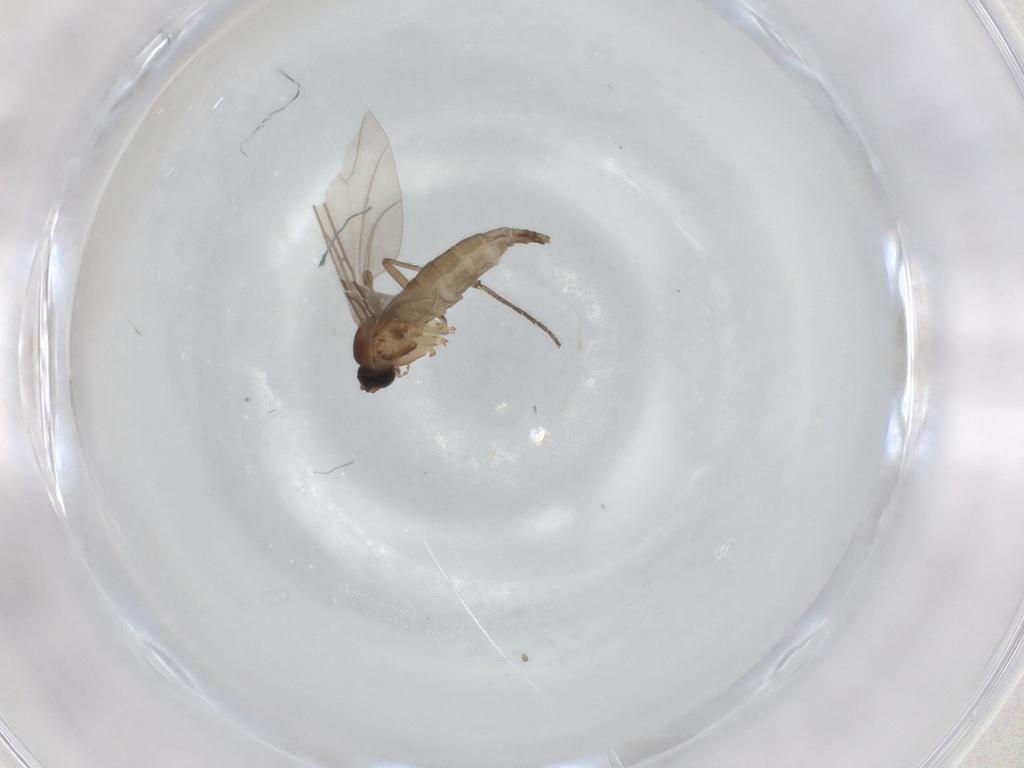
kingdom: Animalia
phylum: Arthropoda
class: Insecta
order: Diptera
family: Sciaridae
